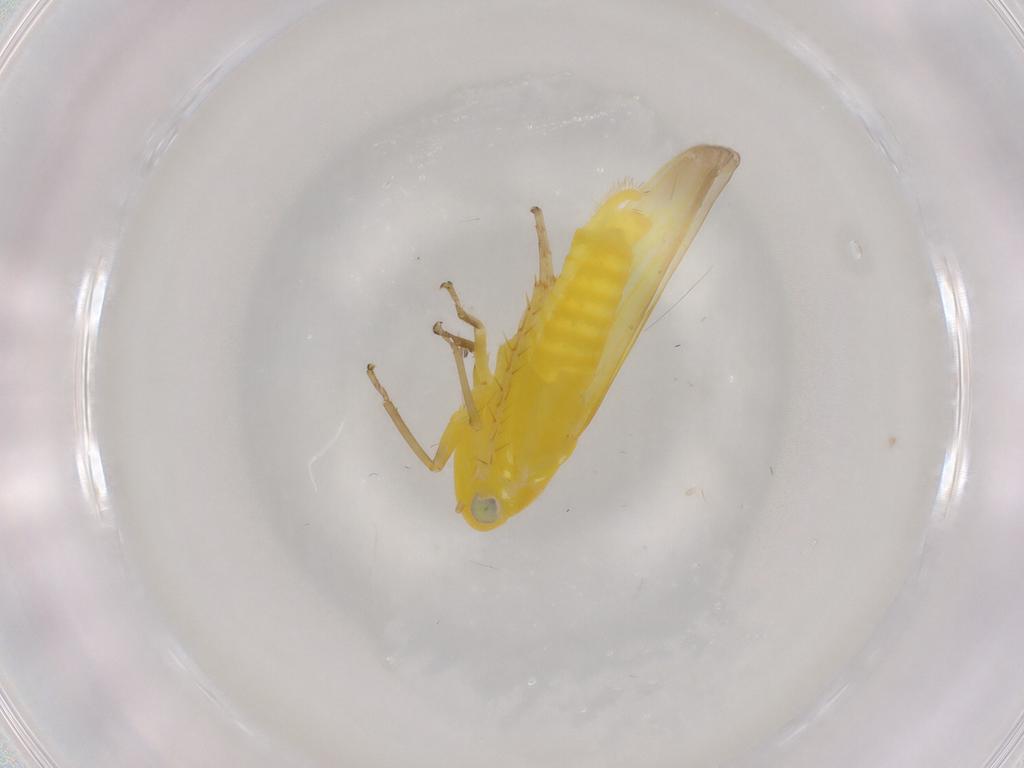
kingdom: Animalia
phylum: Arthropoda
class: Insecta
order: Hemiptera
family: Cicadellidae
